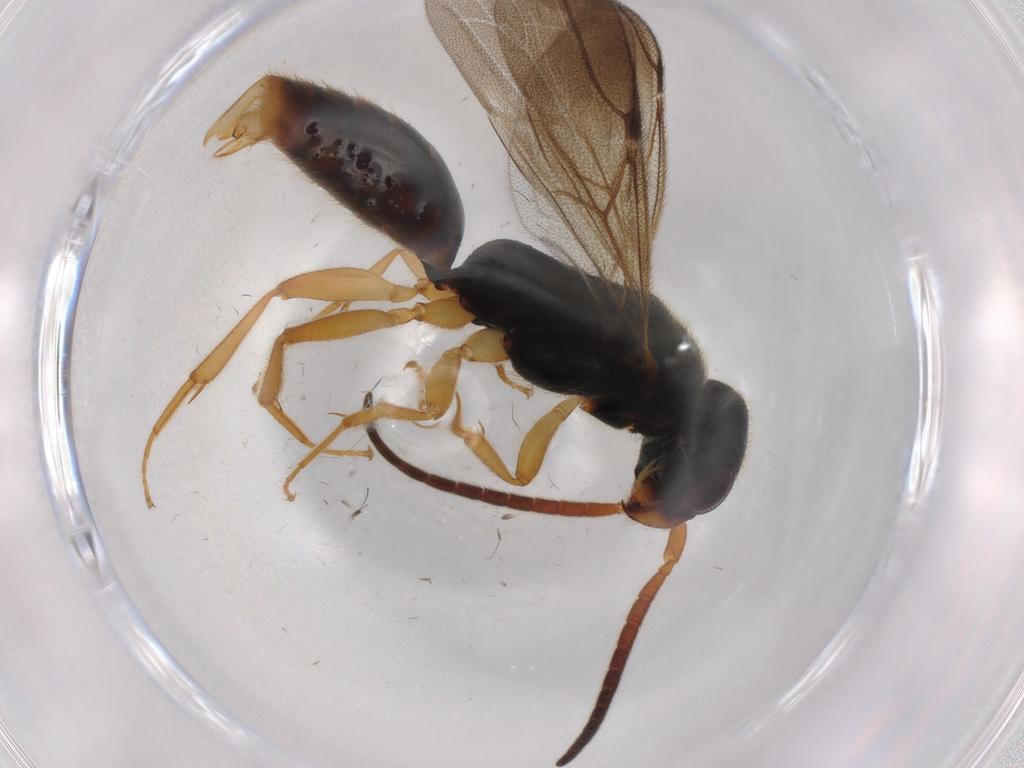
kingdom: Animalia
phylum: Arthropoda
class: Insecta
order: Hymenoptera
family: Bethylidae
